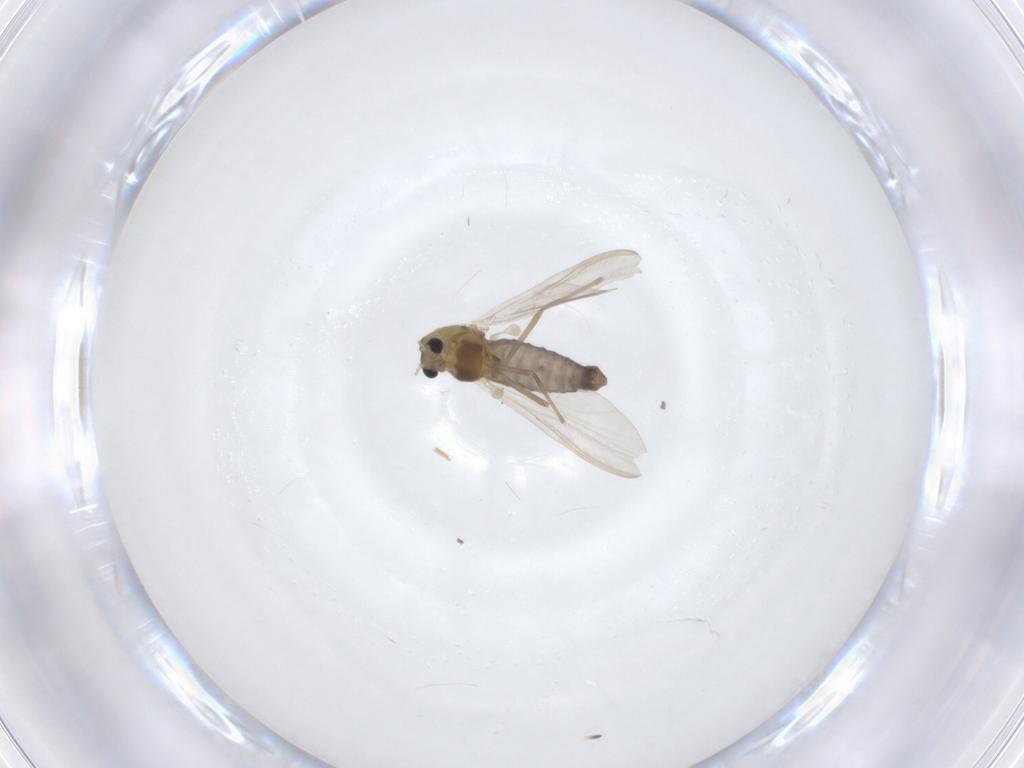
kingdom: Animalia
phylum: Arthropoda
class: Insecta
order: Diptera
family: Chironomidae
